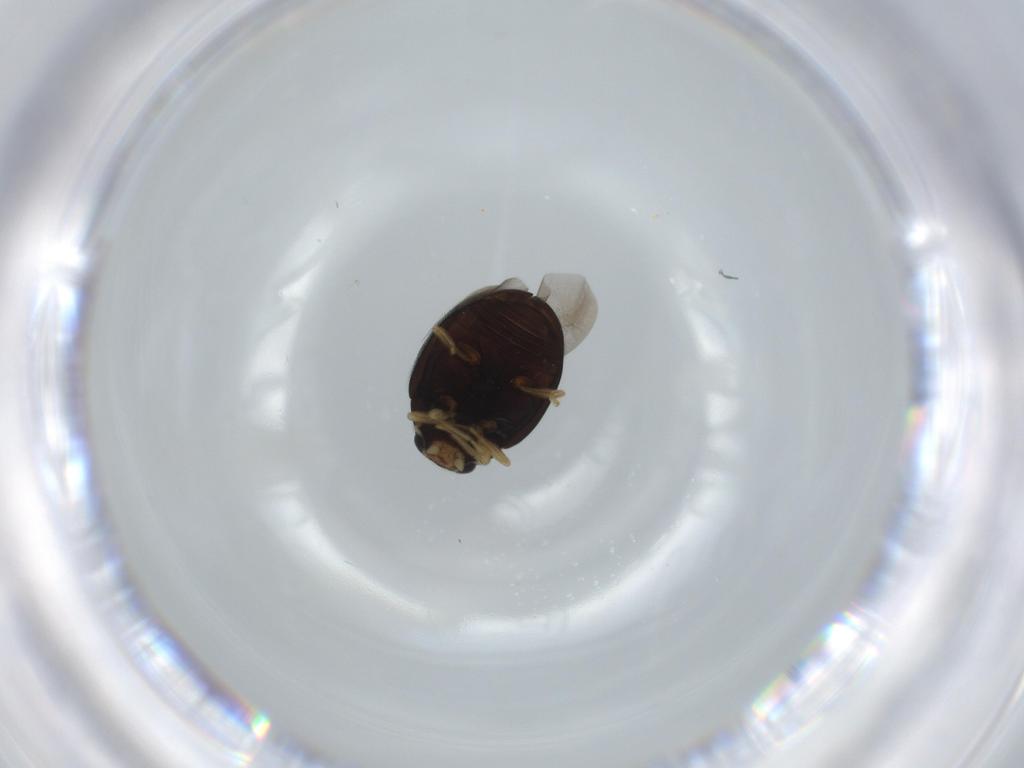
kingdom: Animalia
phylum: Arthropoda
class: Insecta
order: Coleoptera
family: Coccinellidae
